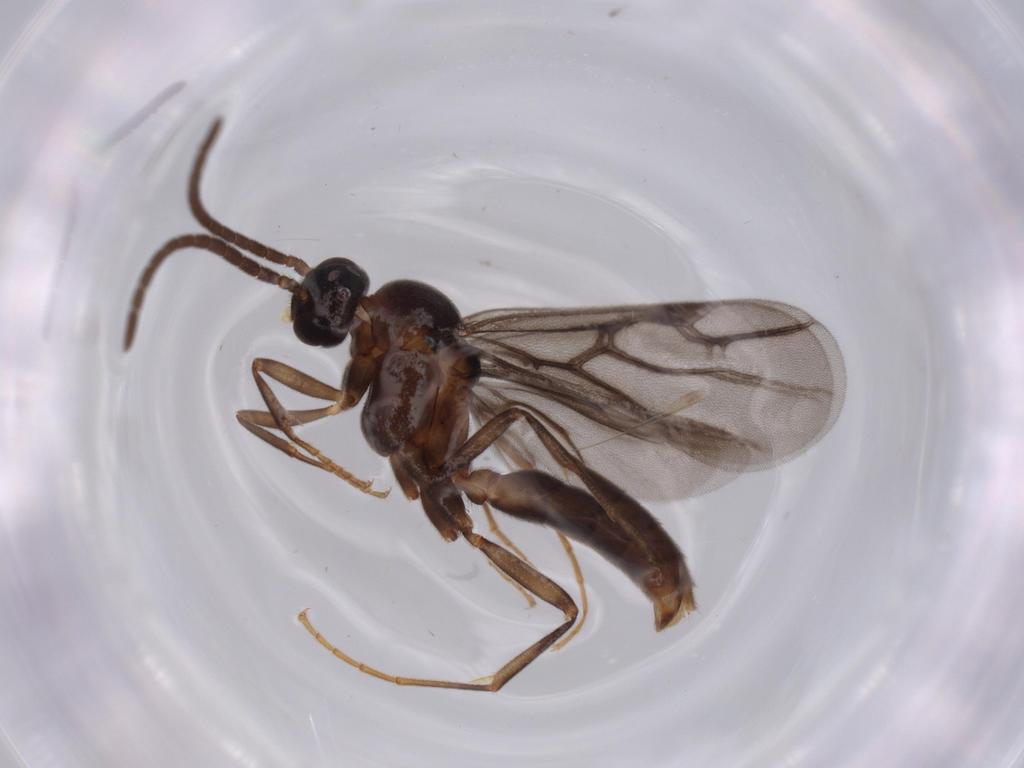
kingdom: Animalia
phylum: Arthropoda
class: Insecta
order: Hymenoptera
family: Formicidae
